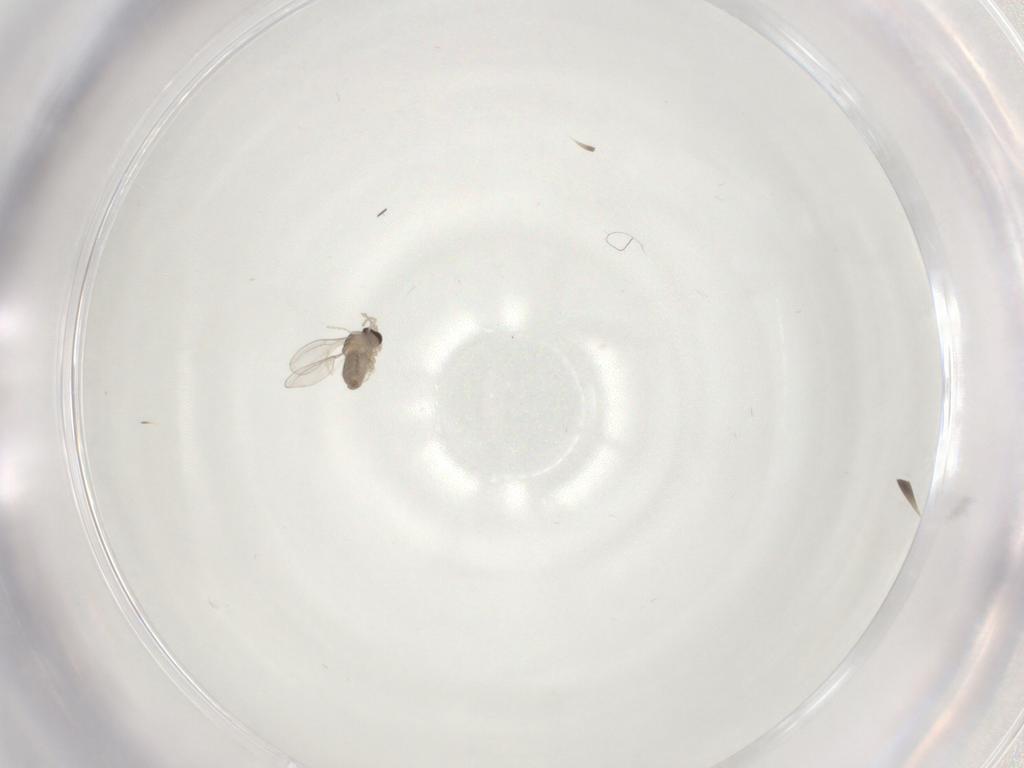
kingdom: Animalia
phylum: Arthropoda
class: Insecta
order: Diptera
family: Cecidomyiidae
